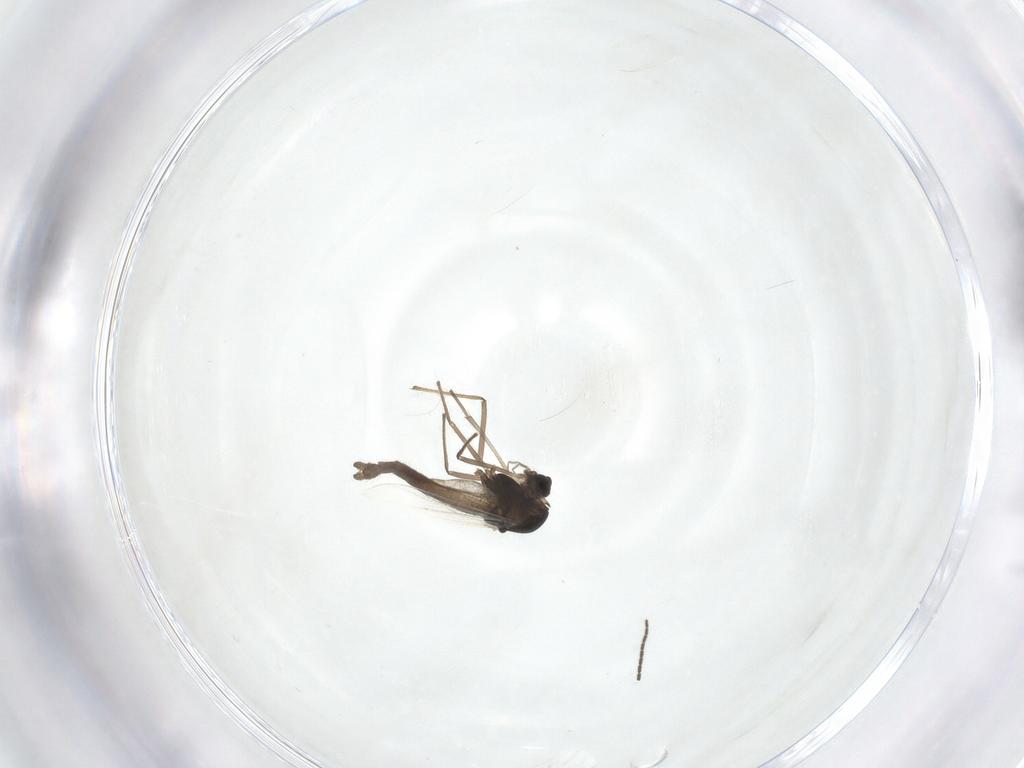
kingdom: Animalia
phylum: Arthropoda
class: Insecta
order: Diptera
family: Chironomidae
